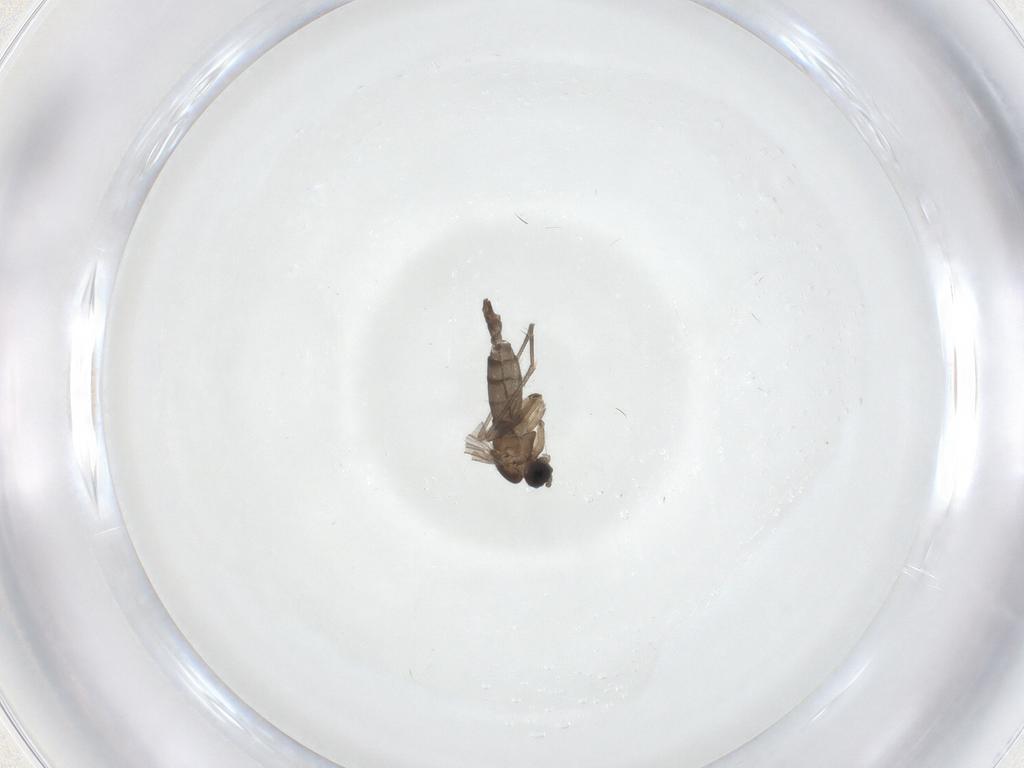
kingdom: Animalia
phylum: Arthropoda
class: Insecta
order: Diptera
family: Sciaridae
